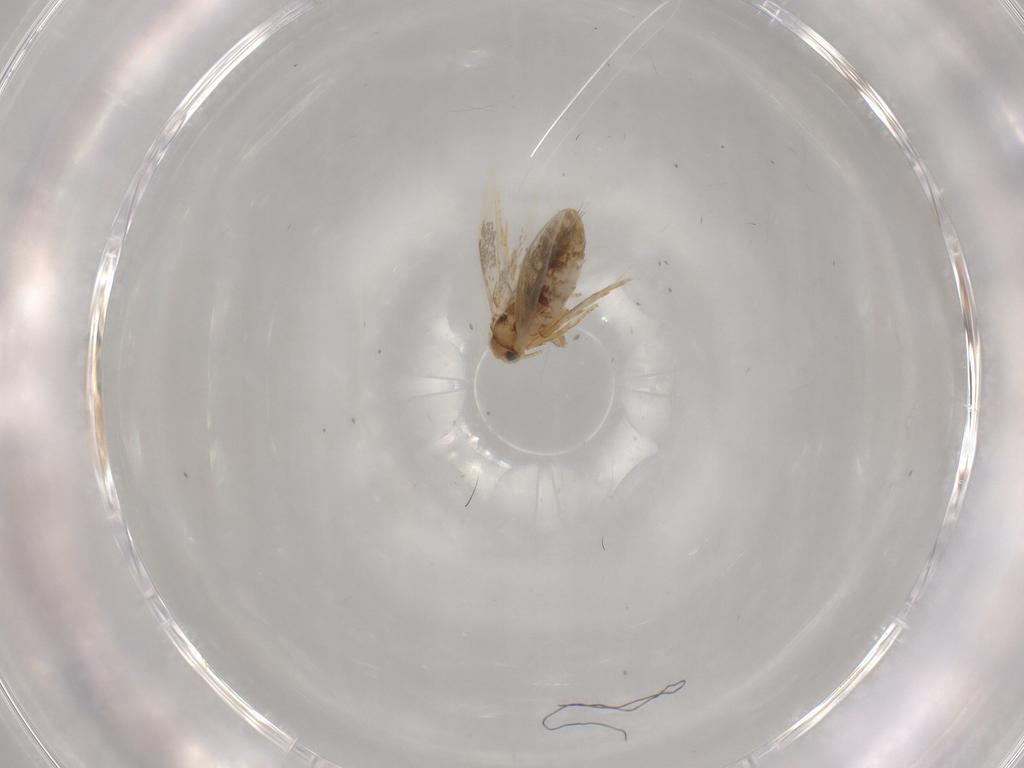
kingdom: Animalia
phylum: Arthropoda
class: Insecta
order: Lepidoptera
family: Nepticulidae
